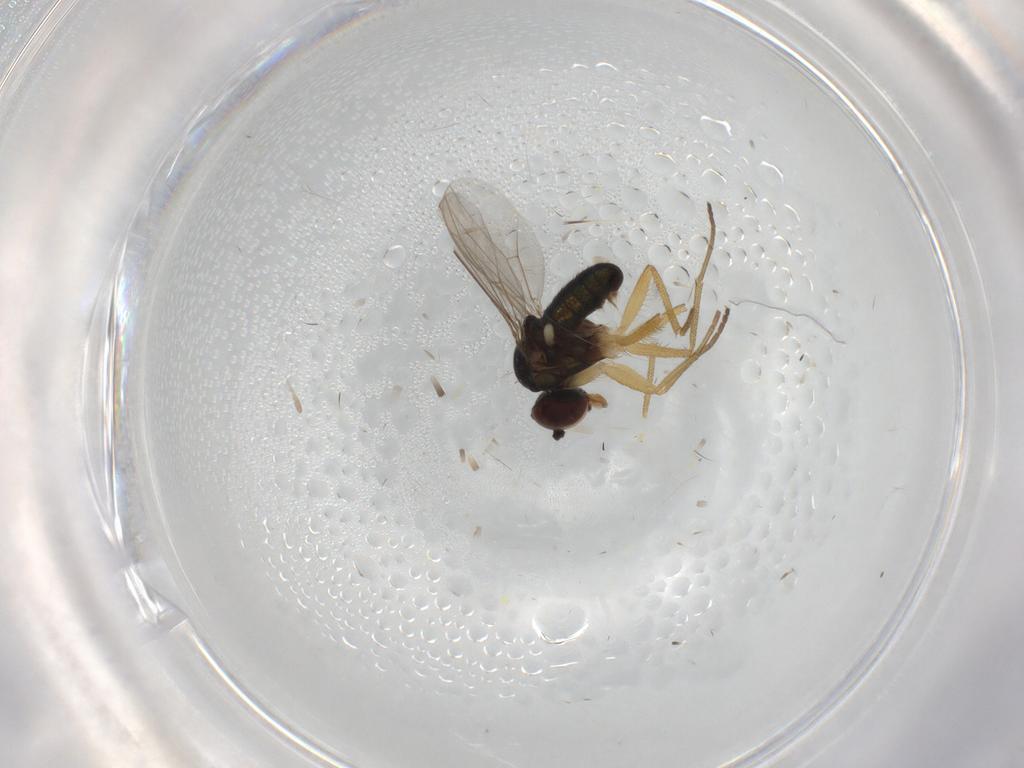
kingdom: Animalia
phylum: Arthropoda
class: Insecta
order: Diptera
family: Dolichopodidae
